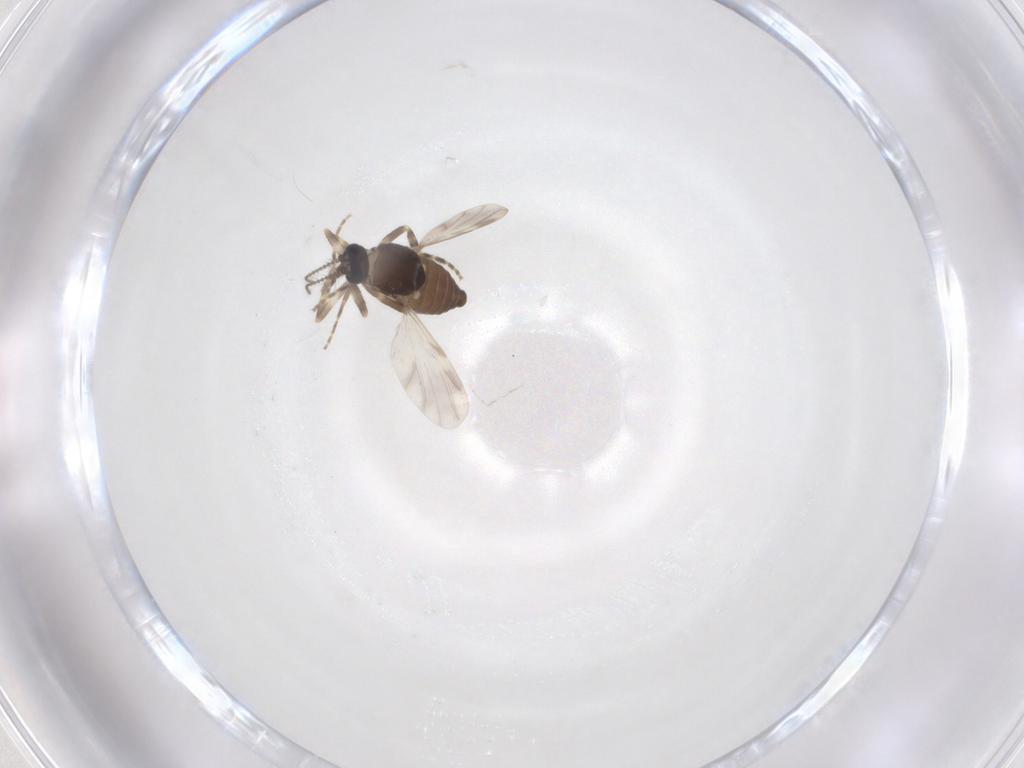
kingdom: Animalia
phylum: Arthropoda
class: Insecta
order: Diptera
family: Ceratopogonidae
